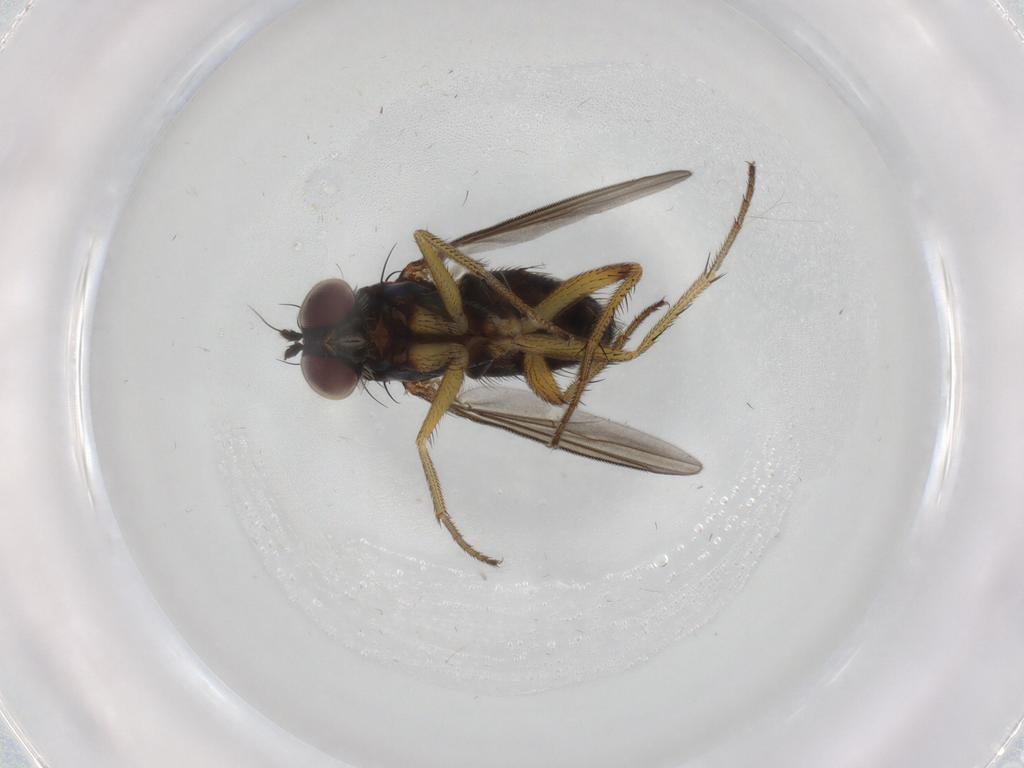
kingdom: Animalia
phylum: Arthropoda
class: Insecta
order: Diptera
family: Dolichopodidae
